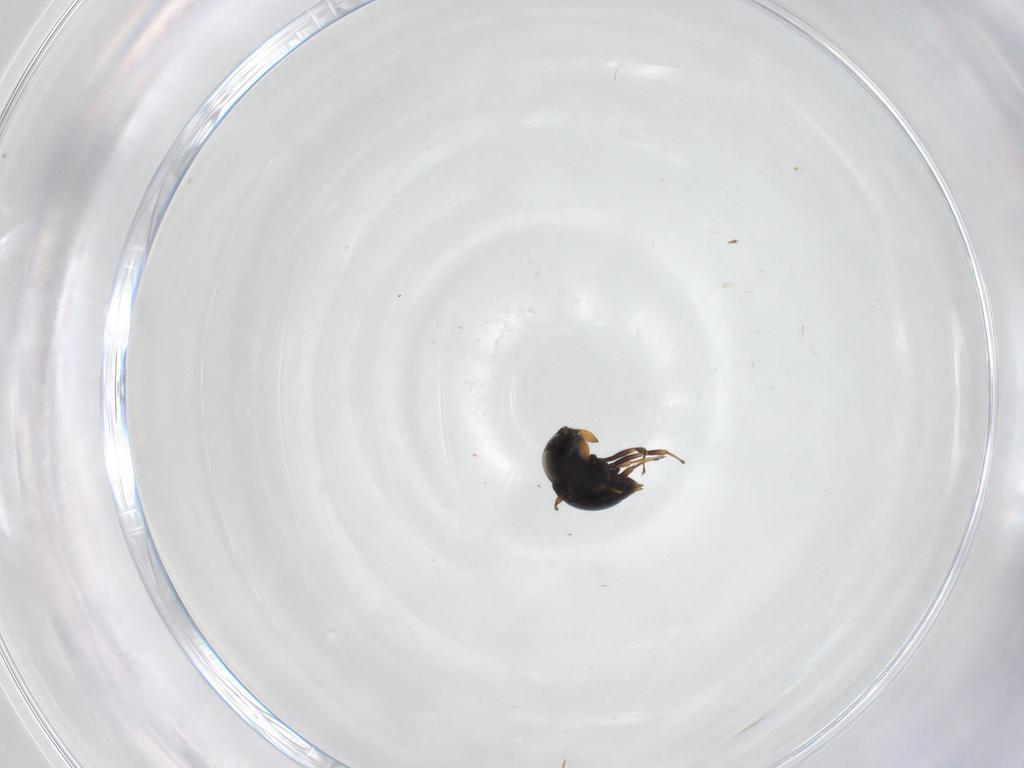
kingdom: Animalia
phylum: Arthropoda
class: Insecta
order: Hymenoptera
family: Scelionidae
